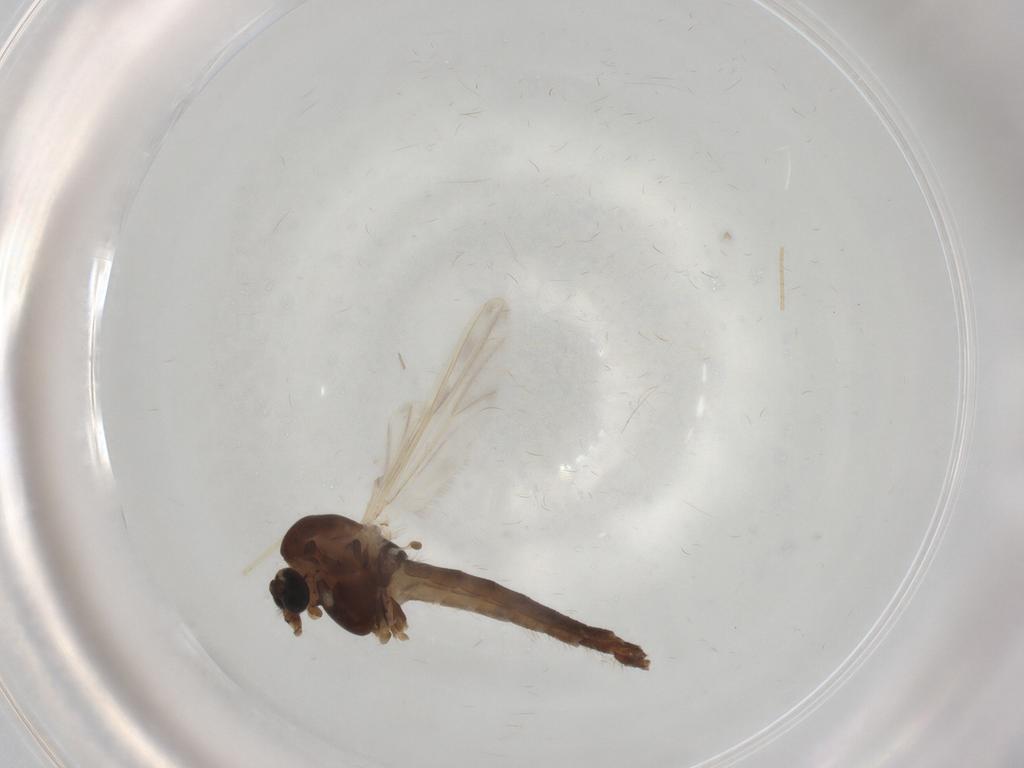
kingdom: Animalia
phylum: Arthropoda
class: Insecta
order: Diptera
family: Chironomidae
